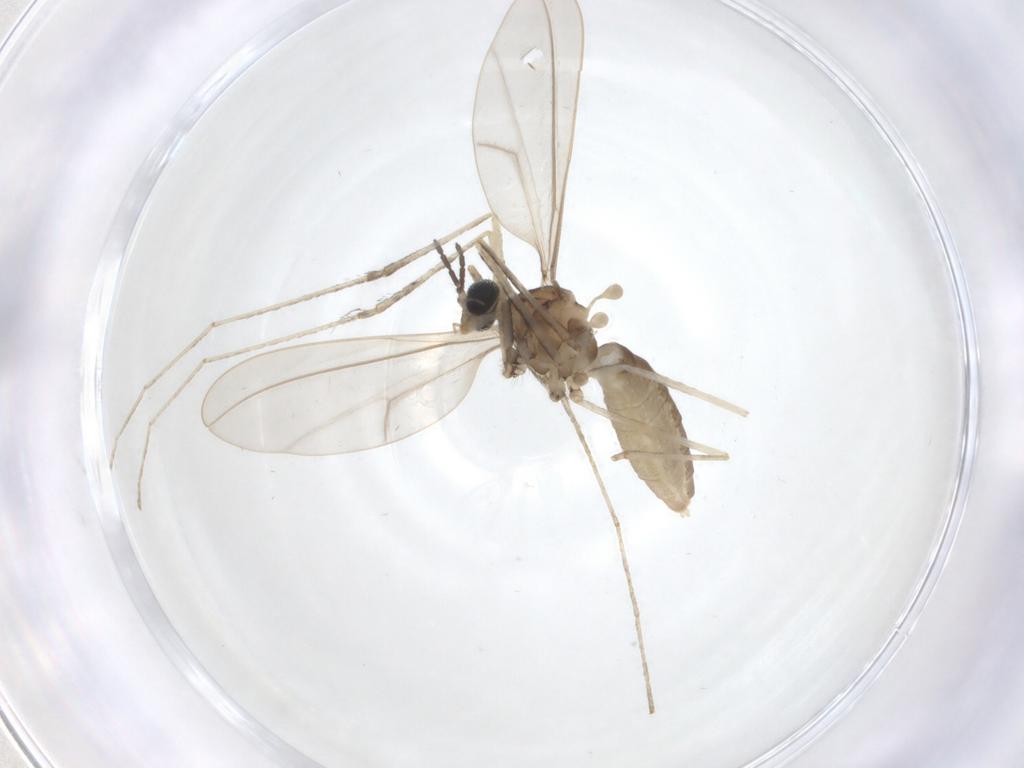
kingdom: Animalia
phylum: Arthropoda
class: Insecta
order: Diptera
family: Cecidomyiidae
